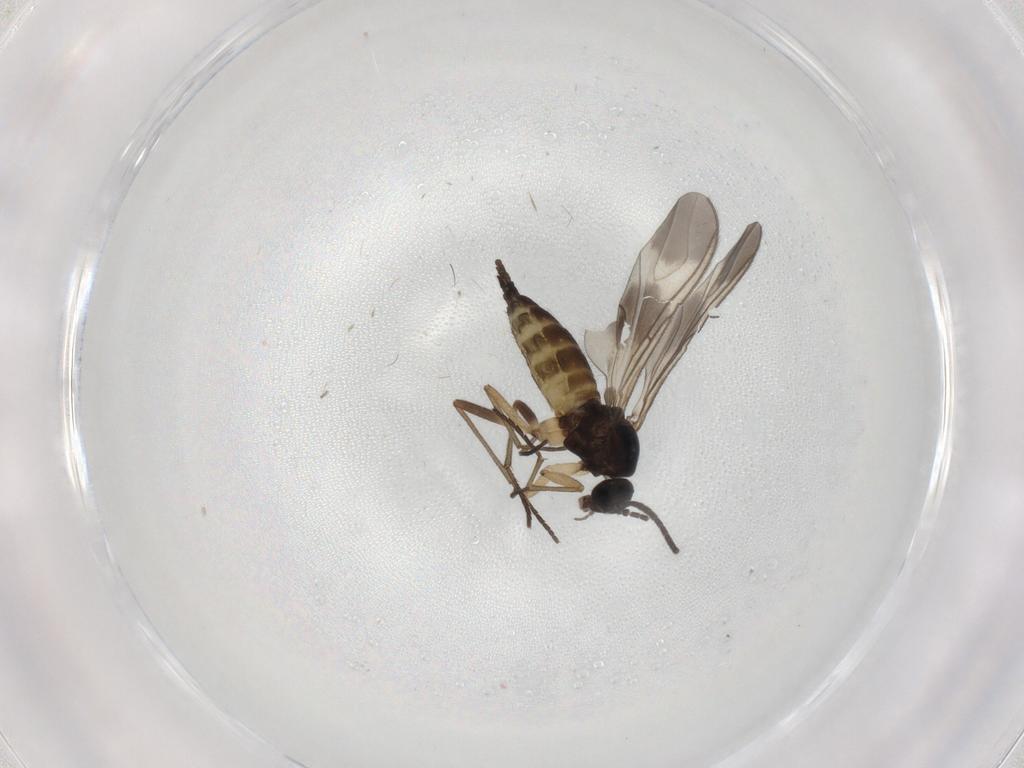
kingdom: Animalia
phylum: Arthropoda
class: Insecta
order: Diptera
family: Sciaridae
